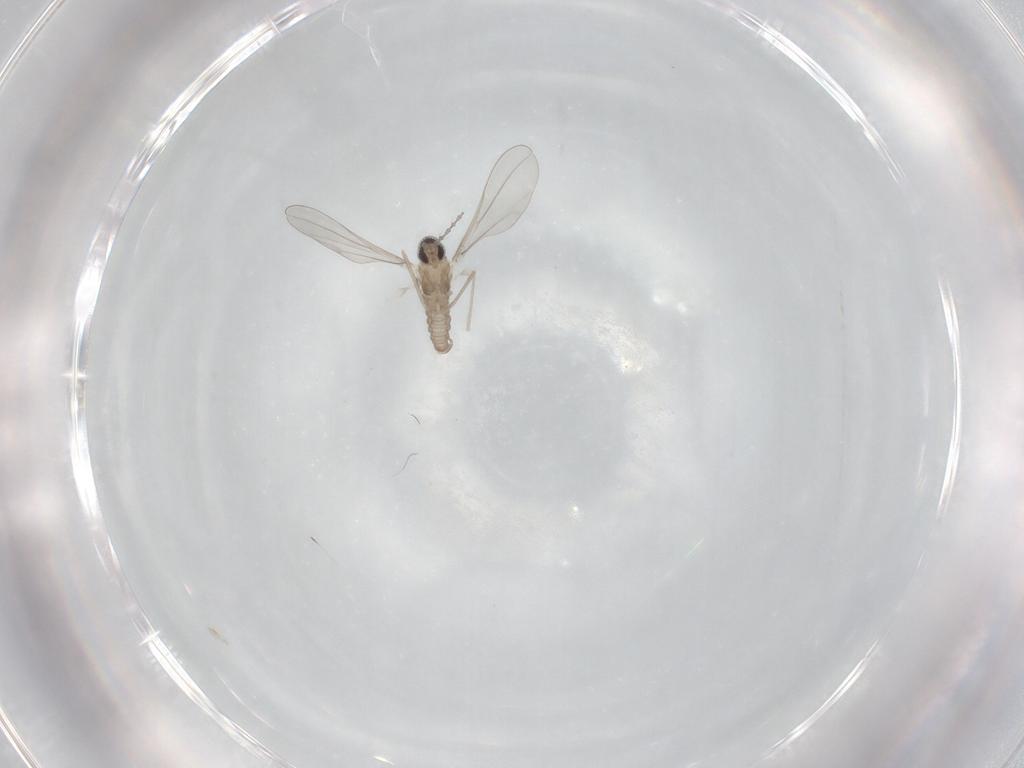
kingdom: Animalia
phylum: Arthropoda
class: Insecta
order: Diptera
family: Cecidomyiidae
